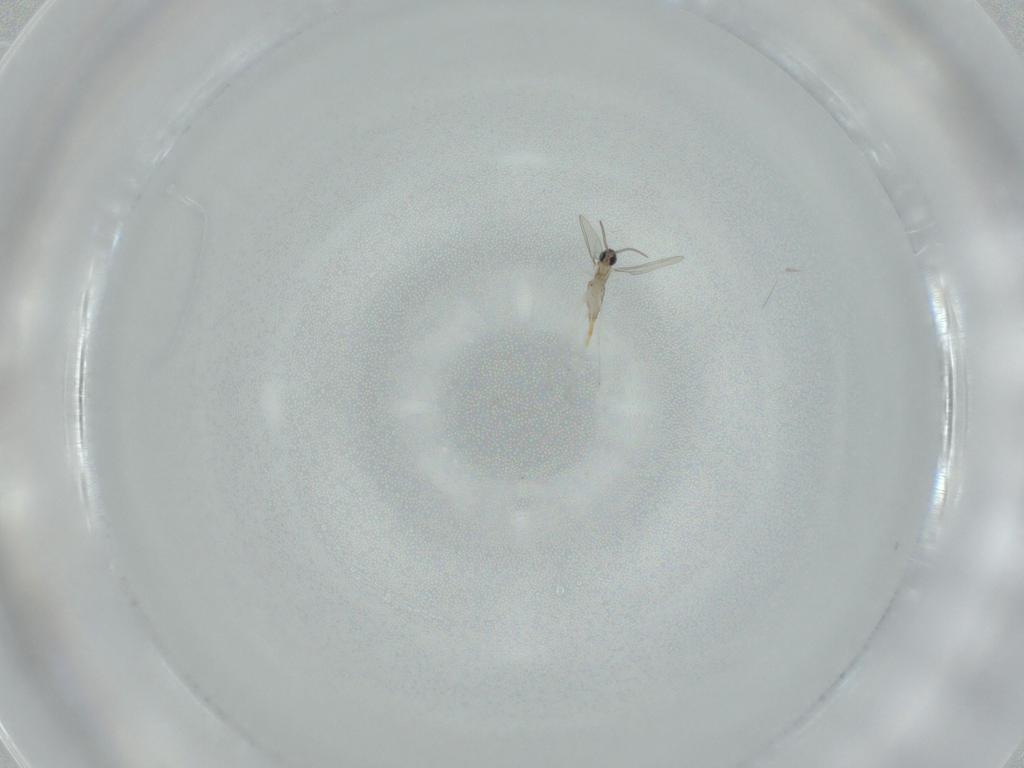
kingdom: Animalia
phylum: Arthropoda
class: Insecta
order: Diptera
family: Cecidomyiidae
